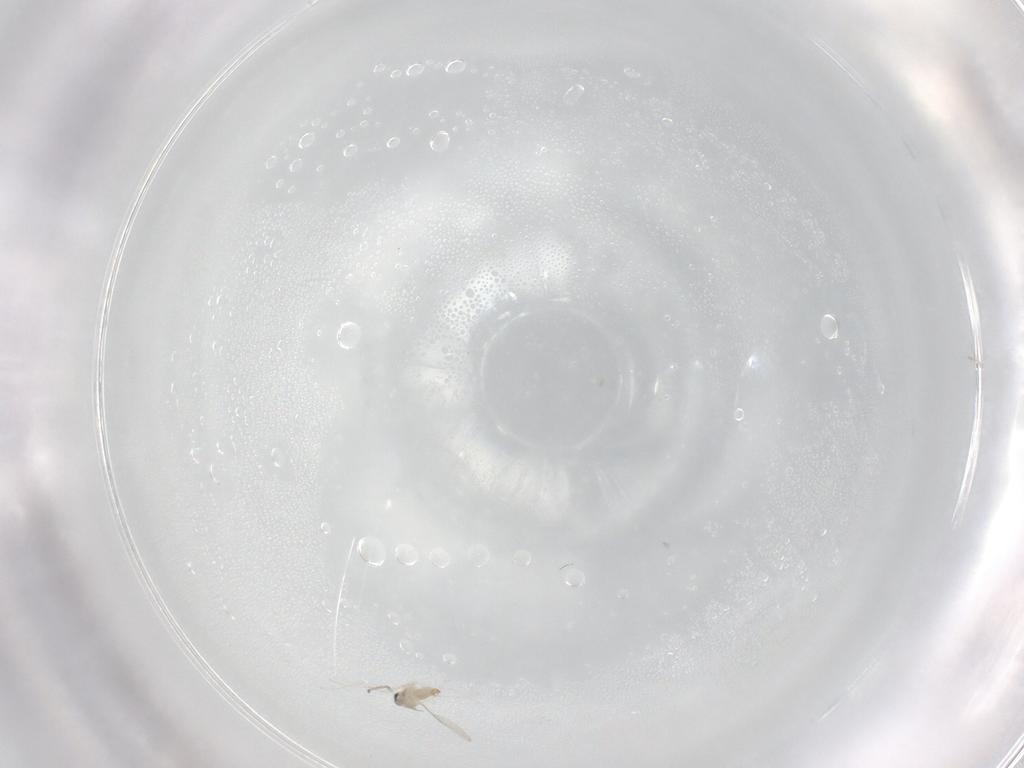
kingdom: Animalia
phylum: Arthropoda
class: Insecta
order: Diptera
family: Cecidomyiidae
